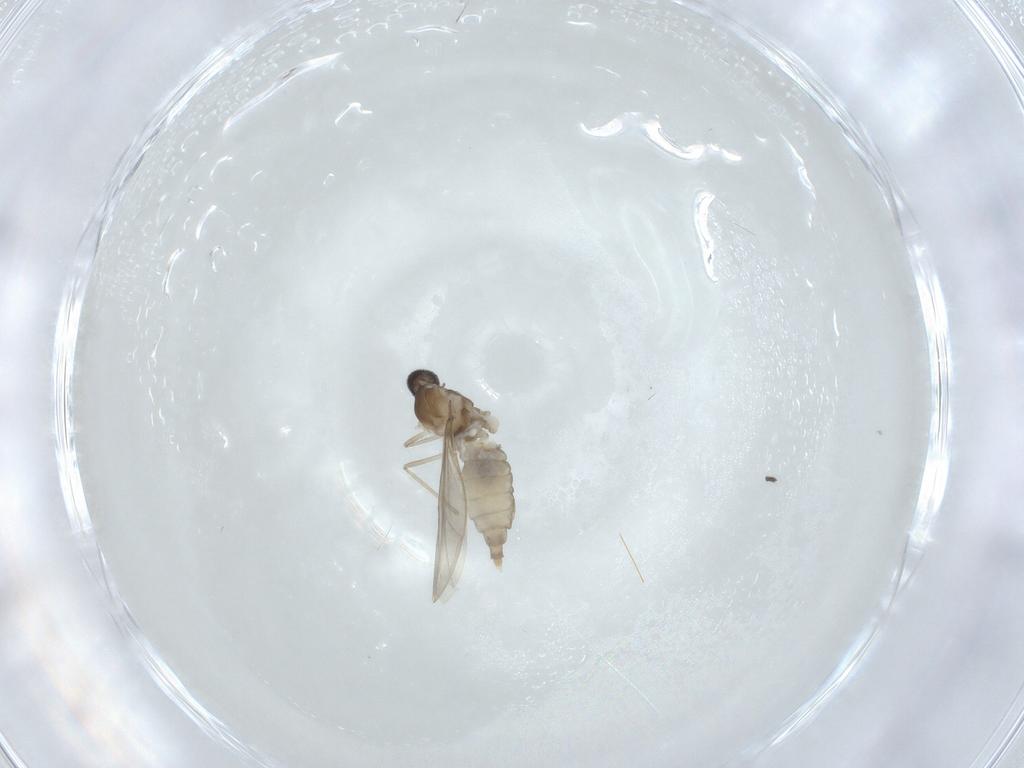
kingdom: Animalia
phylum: Arthropoda
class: Insecta
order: Diptera
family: Cecidomyiidae
